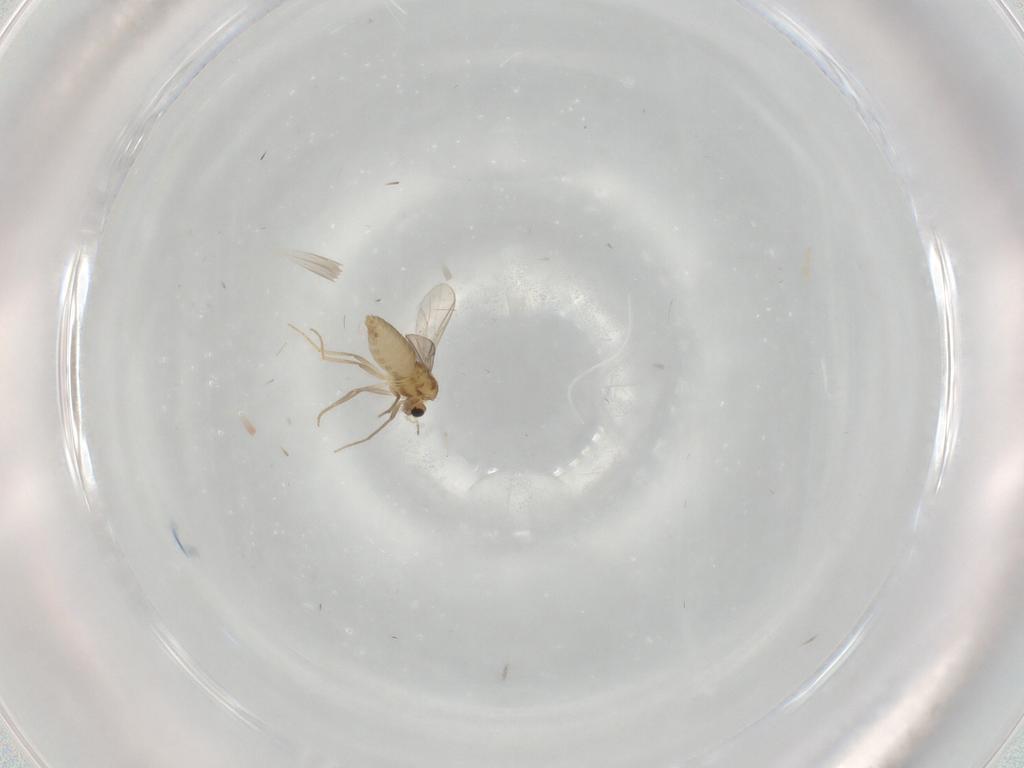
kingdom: Animalia
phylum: Arthropoda
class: Insecta
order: Diptera
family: Chironomidae
